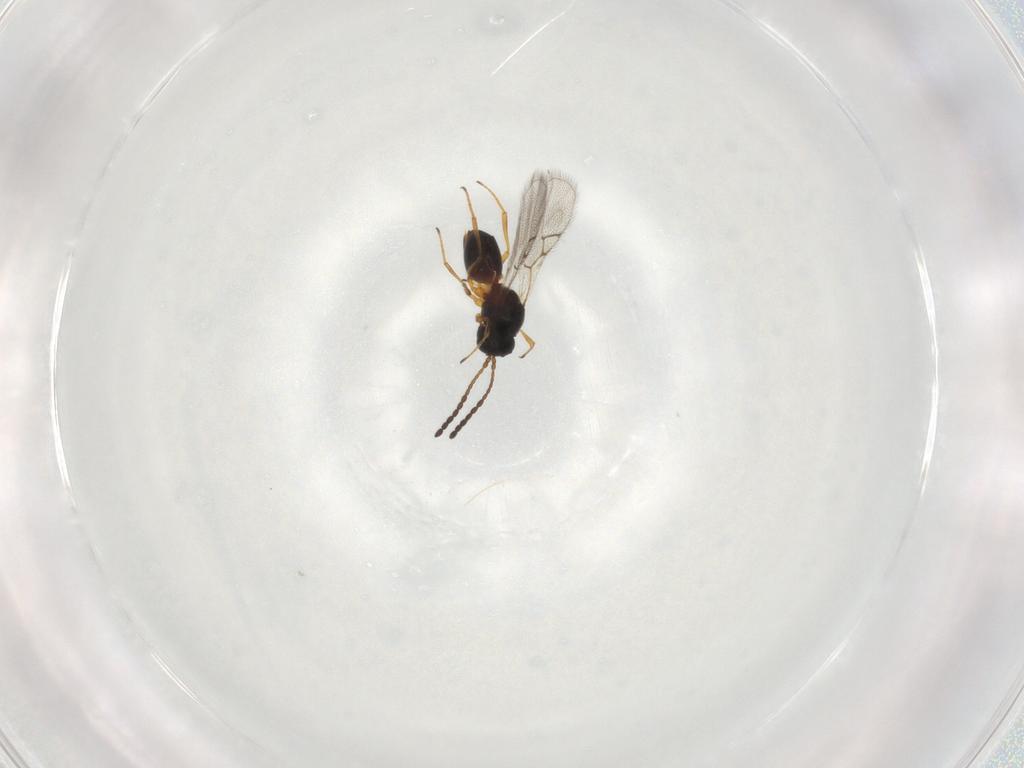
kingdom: Animalia
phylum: Arthropoda
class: Insecta
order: Hymenoptera
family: Figitidae
